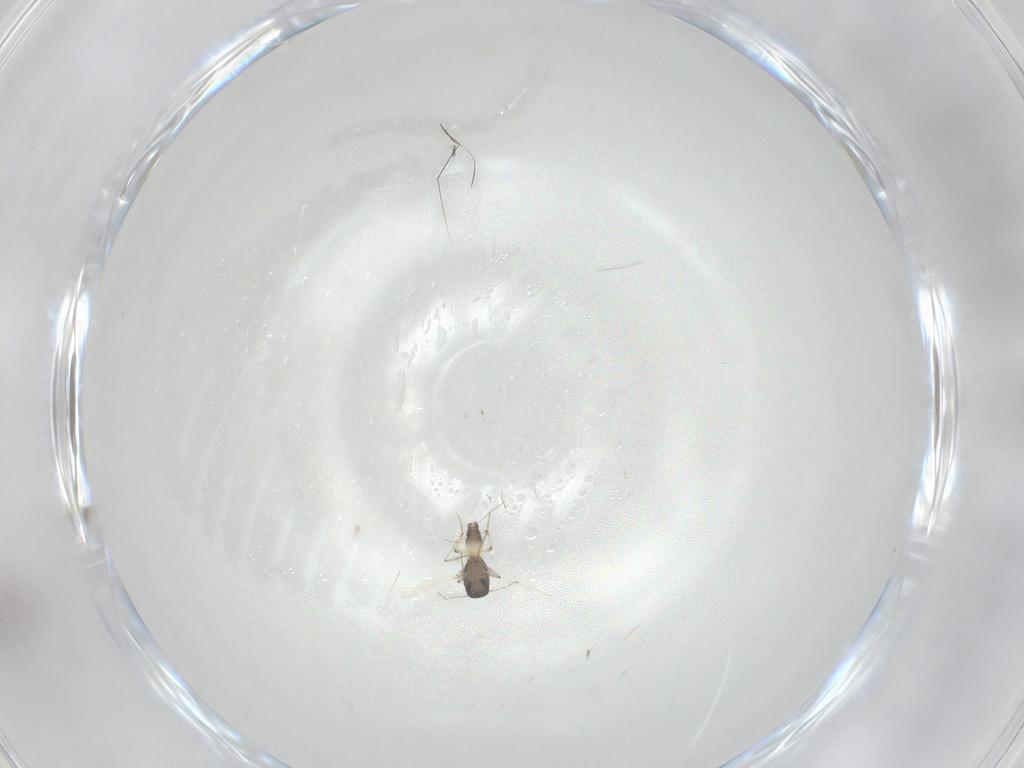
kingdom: Animalia
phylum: Arthropoda
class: Insecta
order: Diptera
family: Ceratopogonidae
